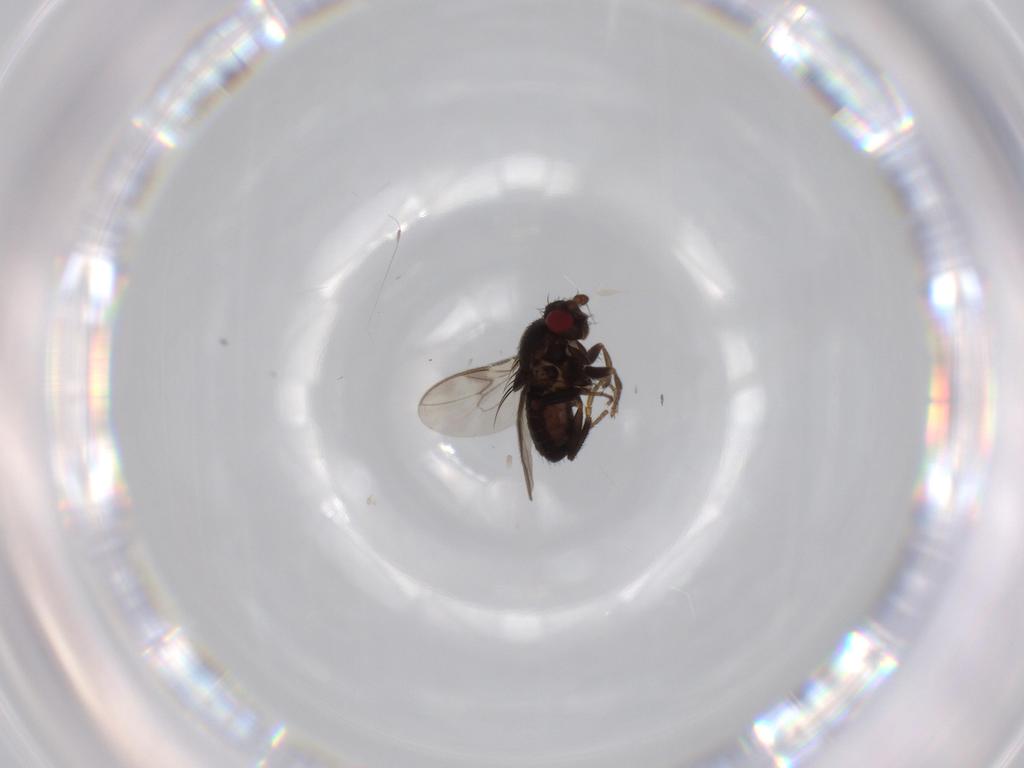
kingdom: Animalia
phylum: Arthropoda
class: Insecta
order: Diptera
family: Sphaeroceridae
